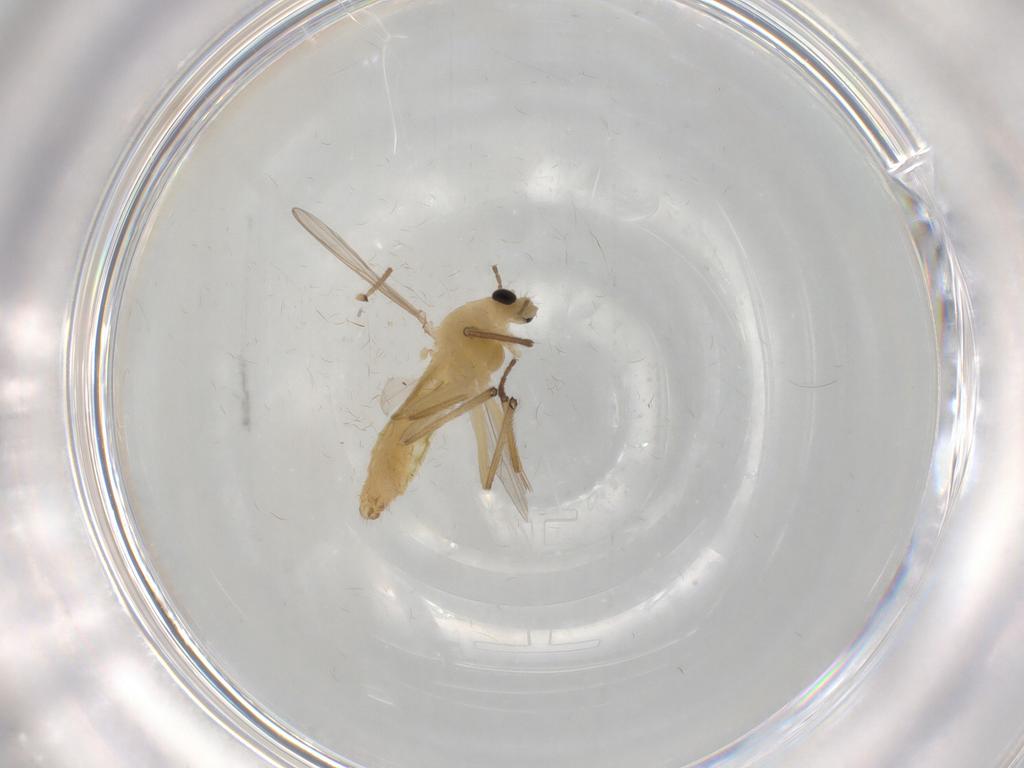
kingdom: Animalia
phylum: Arthropoda
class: Insecta
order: Diptera
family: Chironomidae
